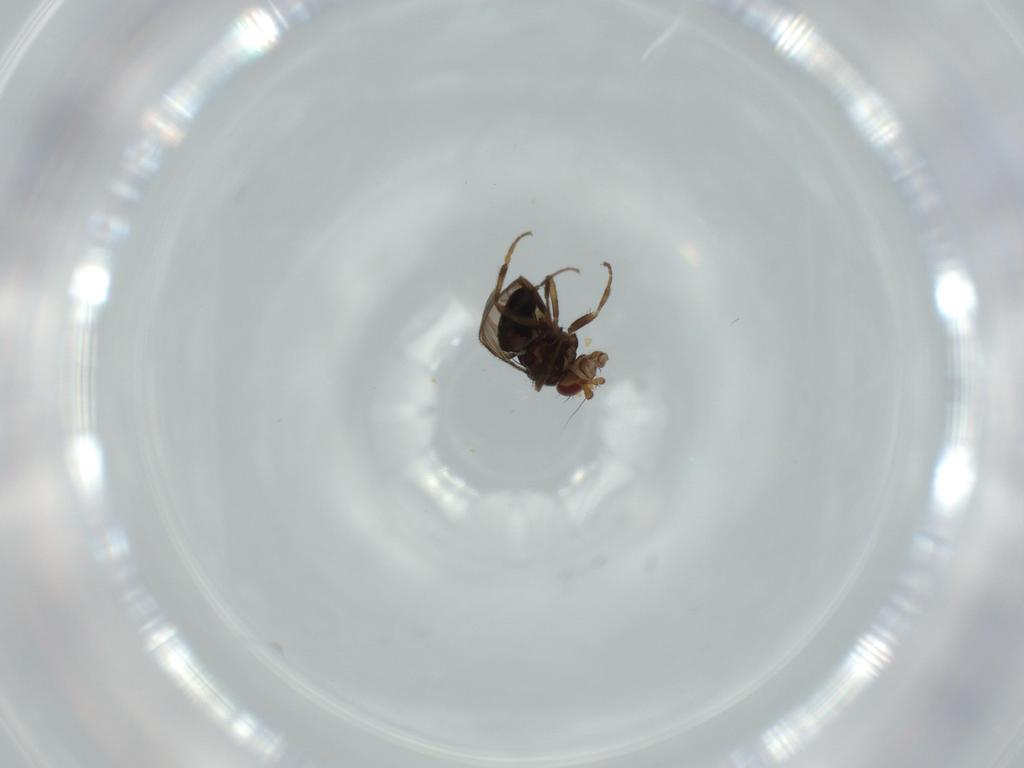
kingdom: Animalia
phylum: Arthropoda
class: Insecta
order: Diptera
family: Sphaeroceridae
